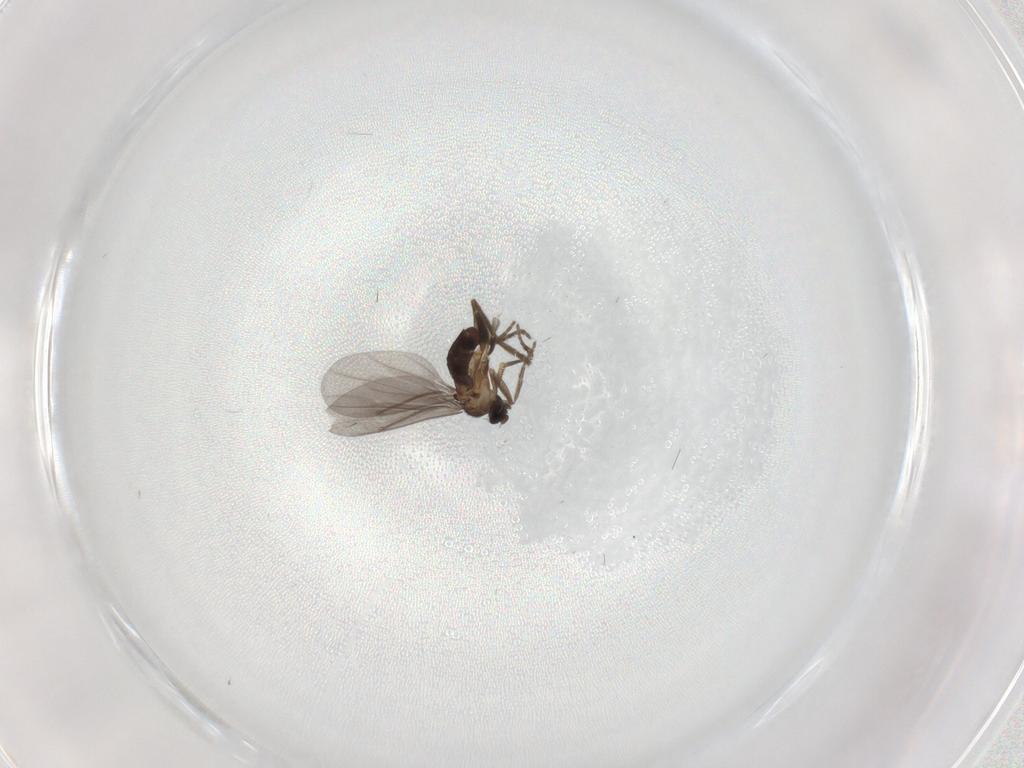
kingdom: Animalia
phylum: Arthropoda
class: Insecta
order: Diptera
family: Phoridae
